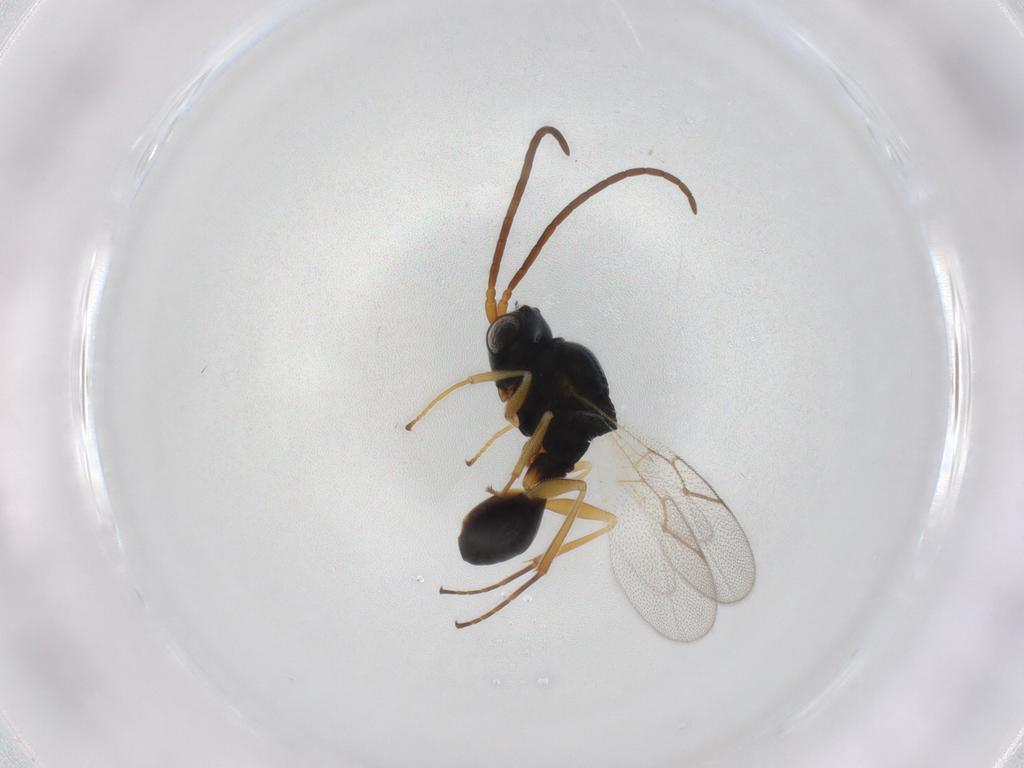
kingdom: Animalia
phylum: Arthropoda
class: Insecta
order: Hymenoptera
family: Figitidae
